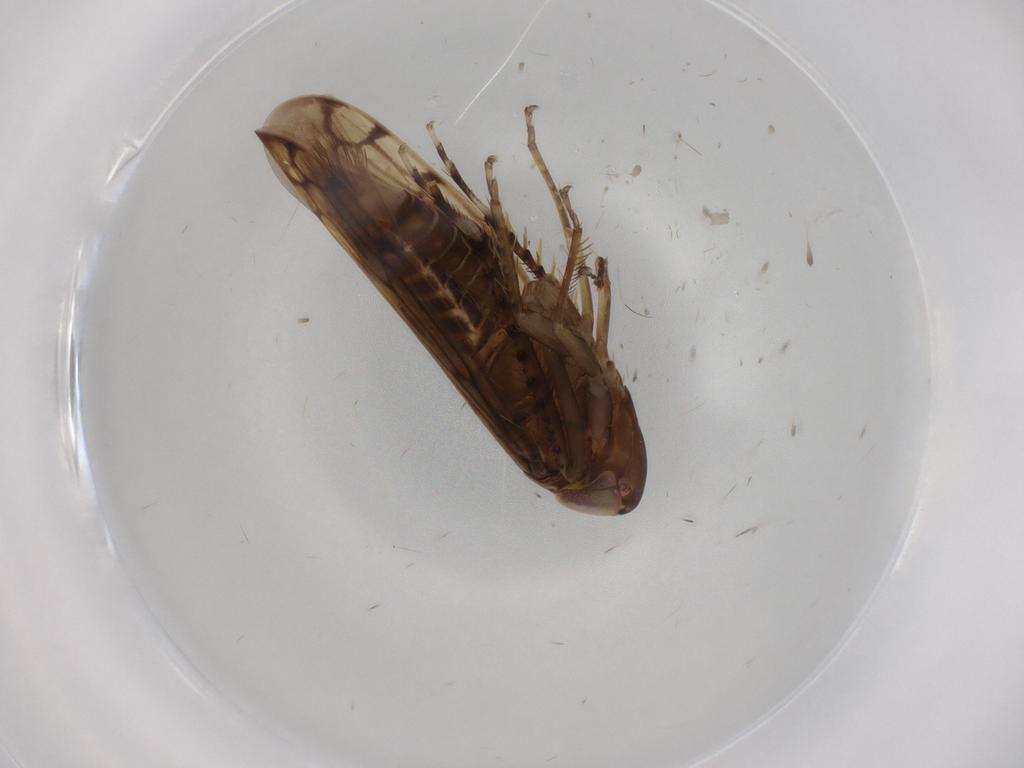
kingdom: Animalia
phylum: Arthropoda
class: Insecta
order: Hemiptera
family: Cicadellidae
